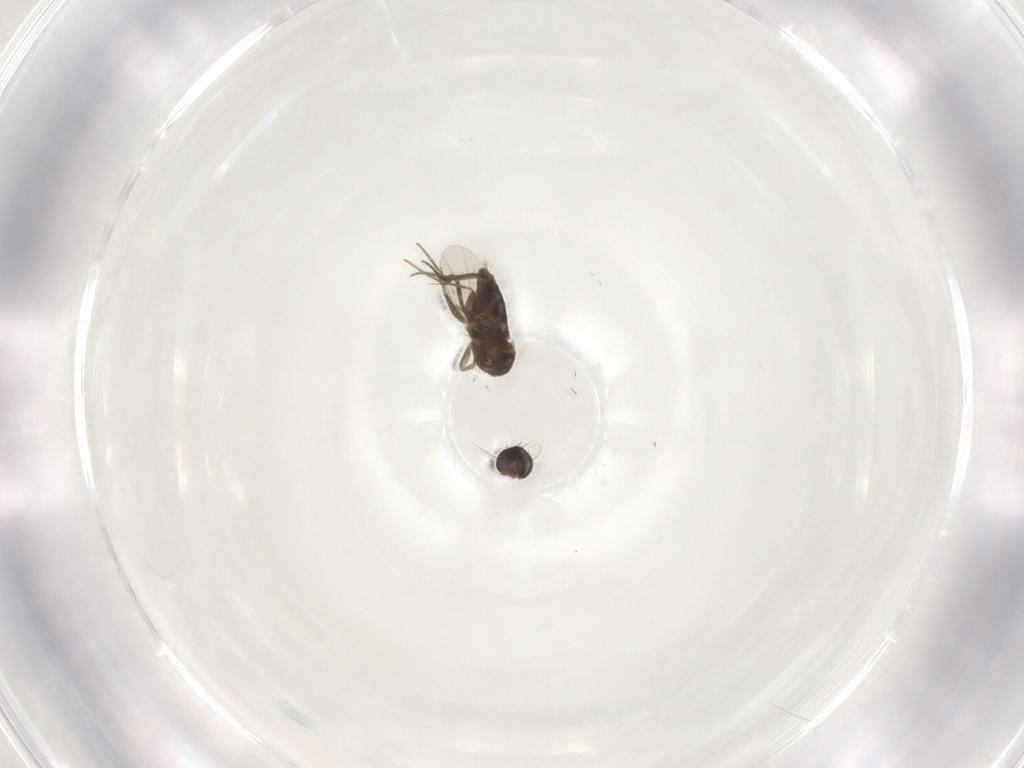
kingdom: Animalia
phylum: Arthropoda
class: Insecta
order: Diptera
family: Phoridae
